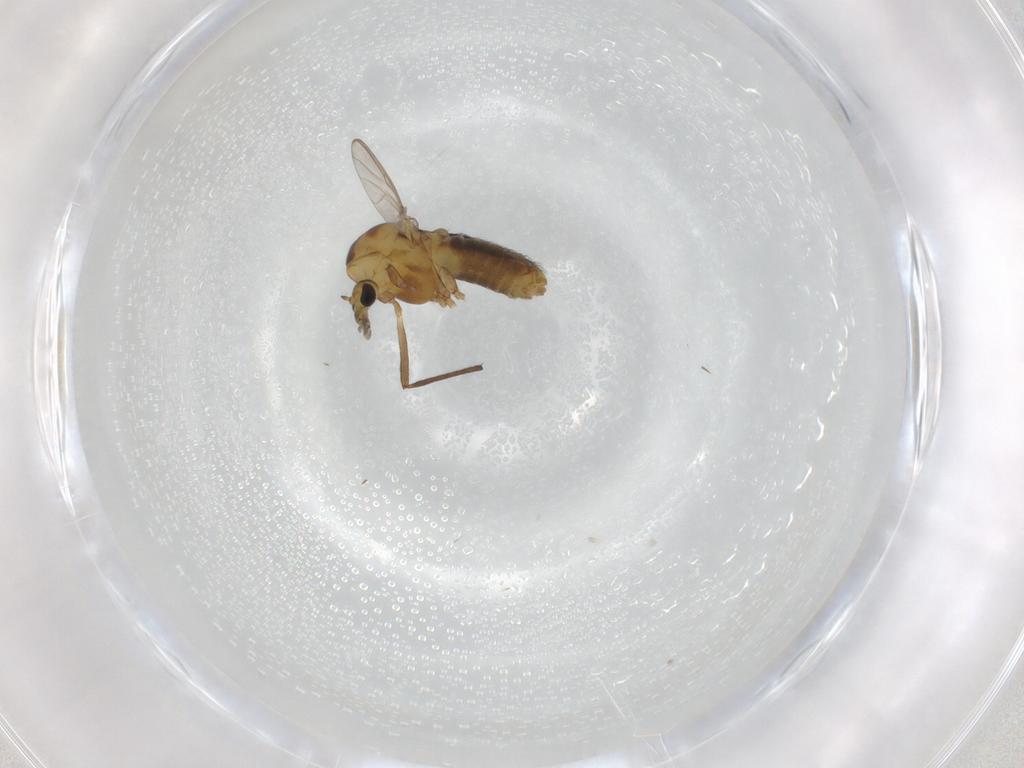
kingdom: Animalia
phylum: Arthropoda
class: Insecta
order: Diptera
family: Chironomidae
